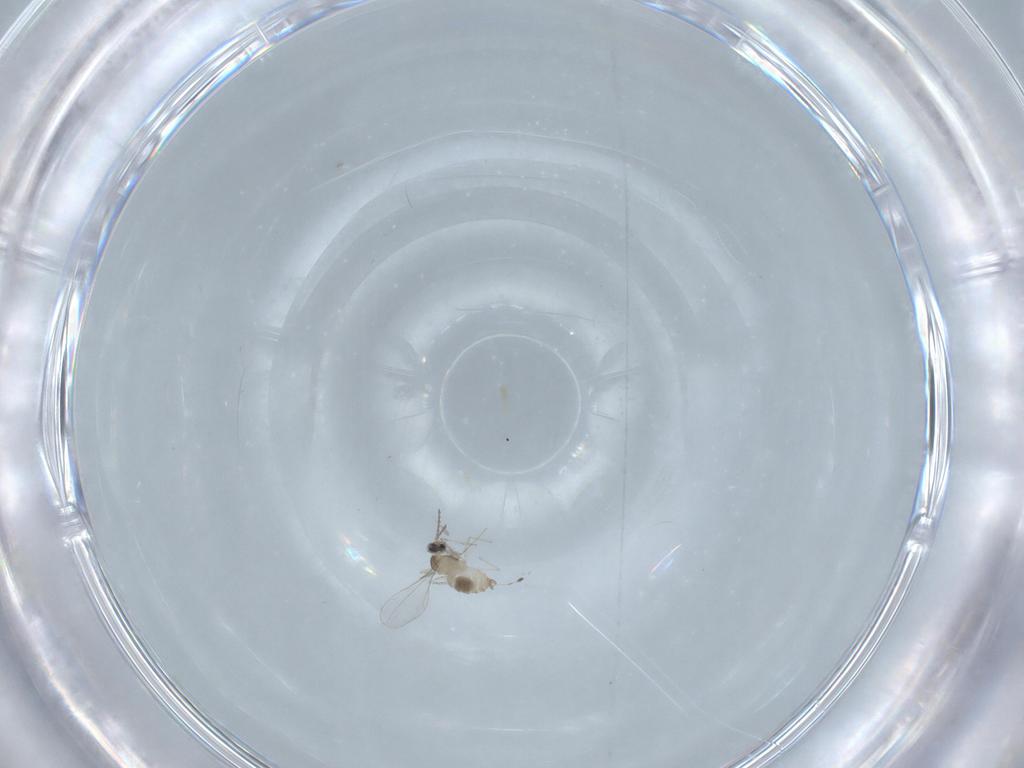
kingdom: Animalia
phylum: Arthropoda
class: Insecta
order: Diptera
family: Cecidomyiidae
